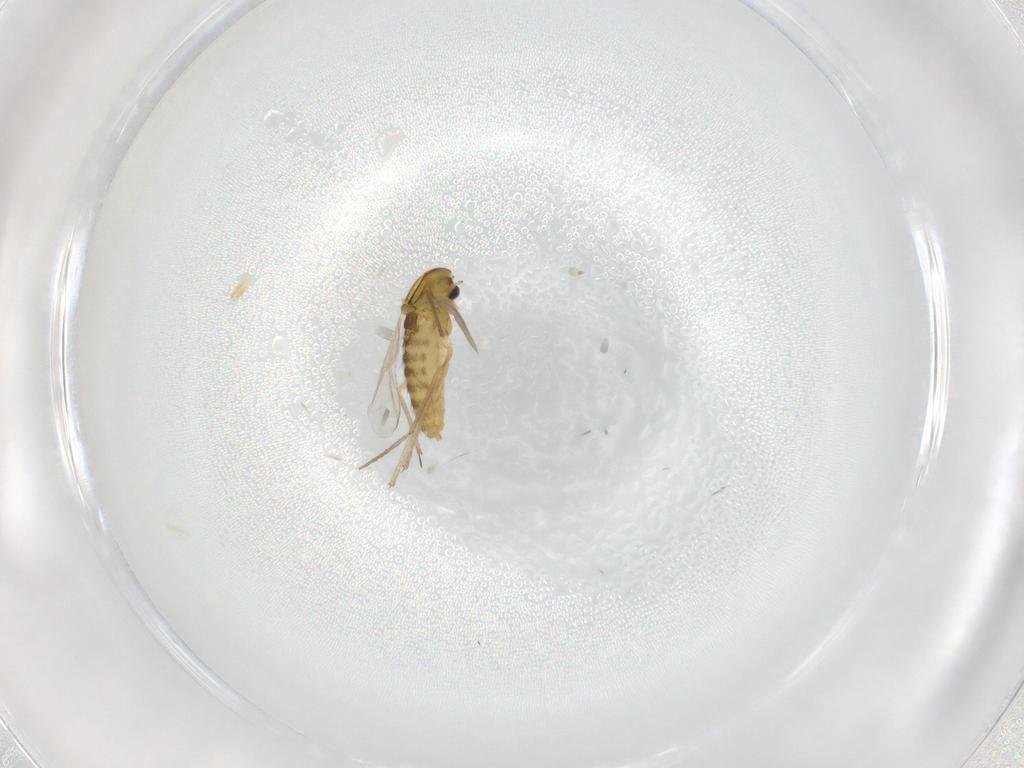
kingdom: Animalia
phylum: Arthropoda
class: Insecta
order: Diptera
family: Chironomidae
